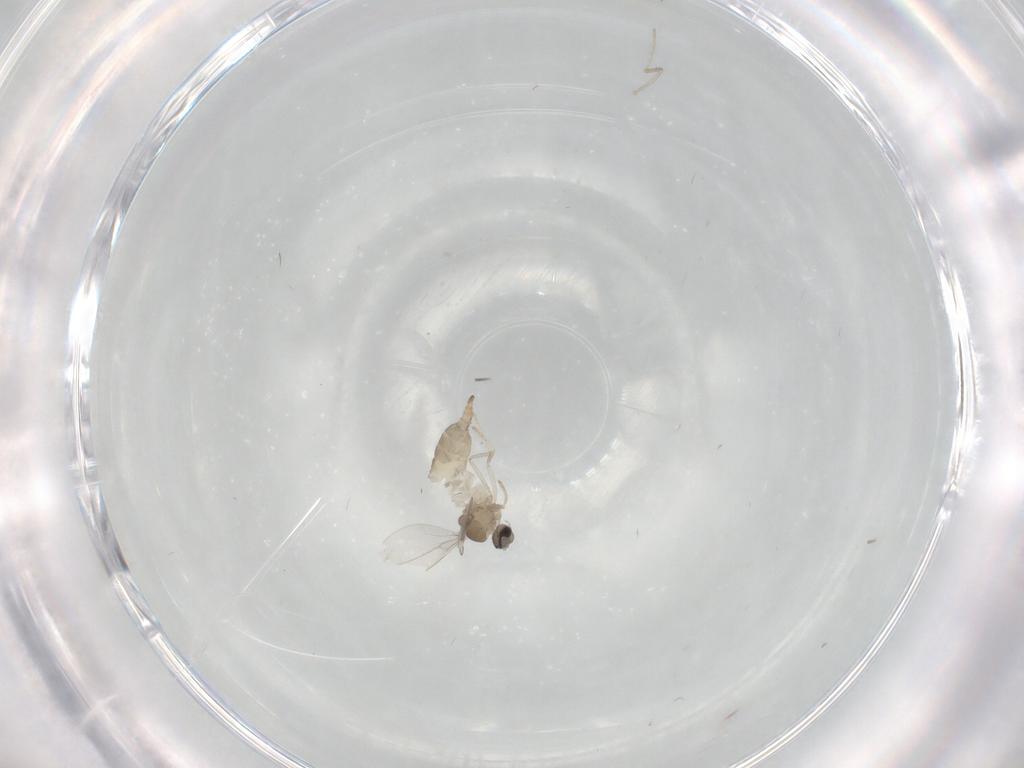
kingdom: Animalia
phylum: Arthropoda
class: Insecta
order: Diptera
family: Cecidomyiidae
